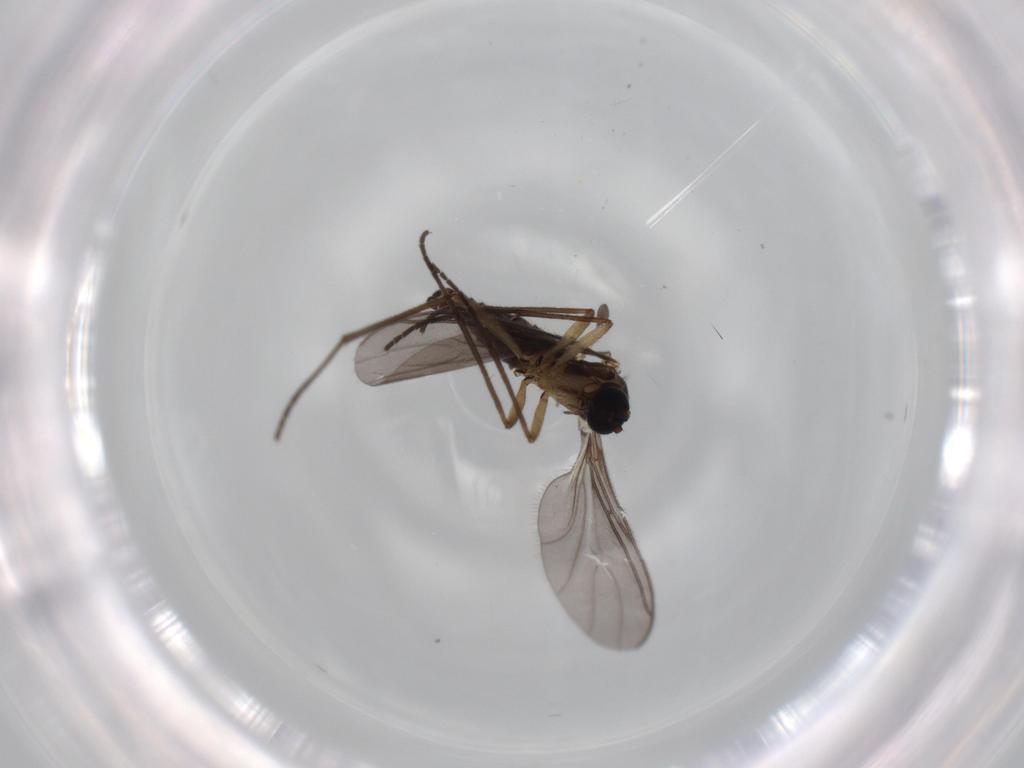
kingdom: Animalia
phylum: Arthropoda
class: Insecta
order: Diptera
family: Sciaridae
